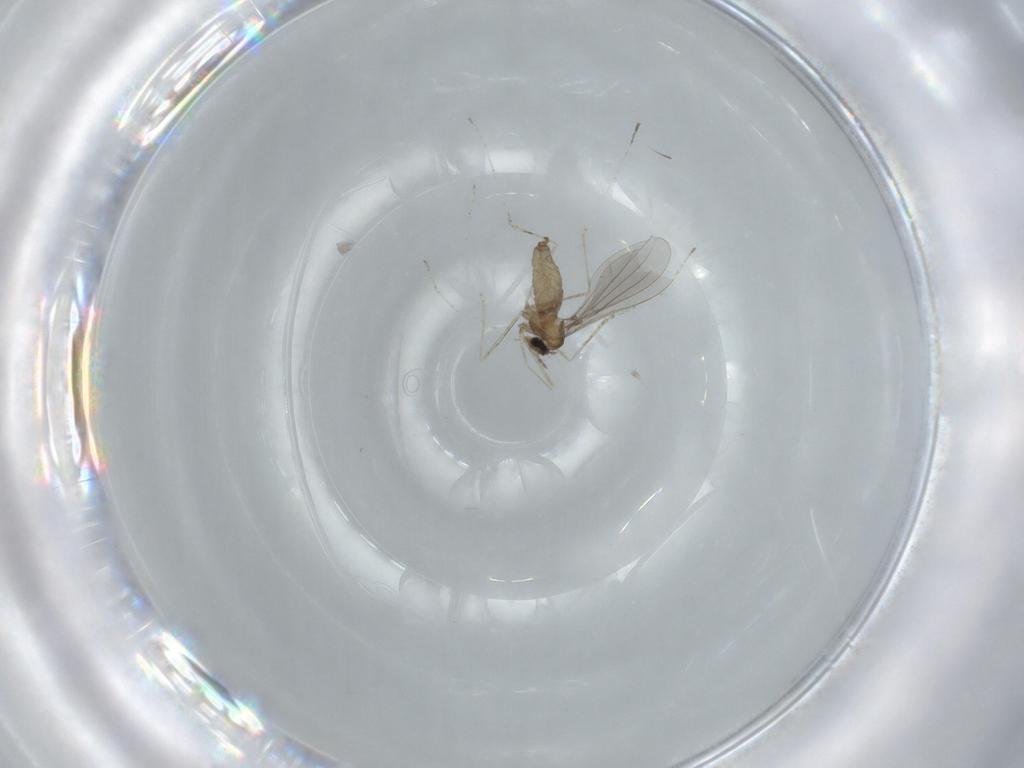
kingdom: Animalia
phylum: Arthropoda
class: Insecta
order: Diptera
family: Cecidomyiidae
